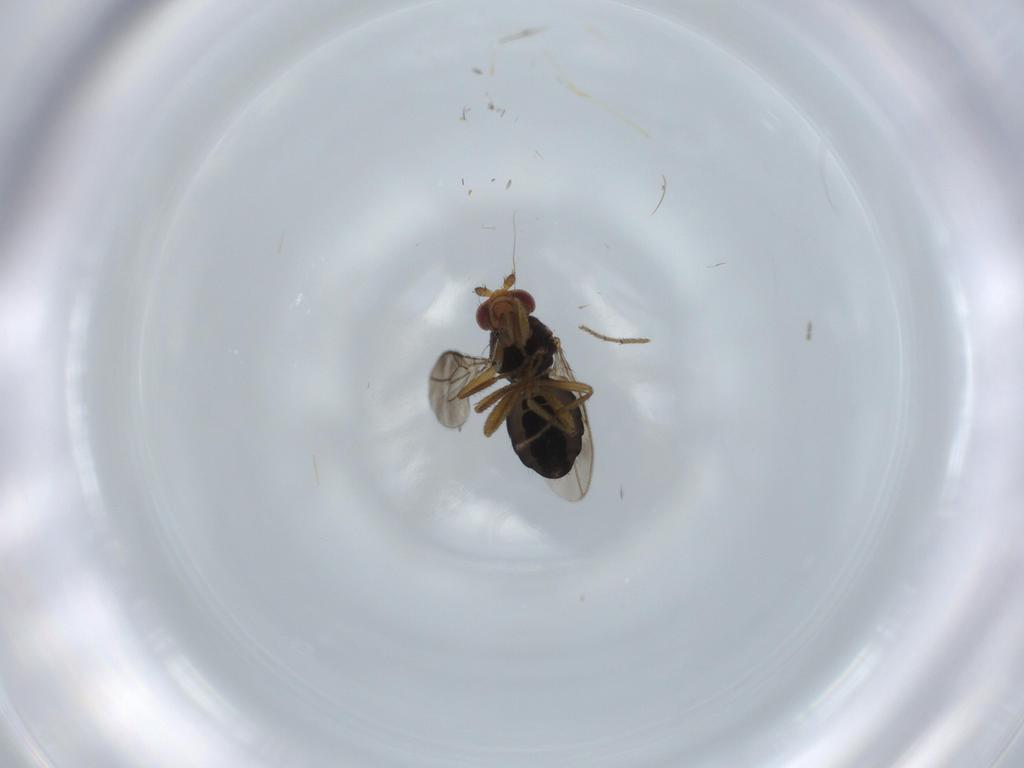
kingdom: Animalia
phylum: Arthropoda
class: Insecta
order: Diptera
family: Sphaeroceridae
